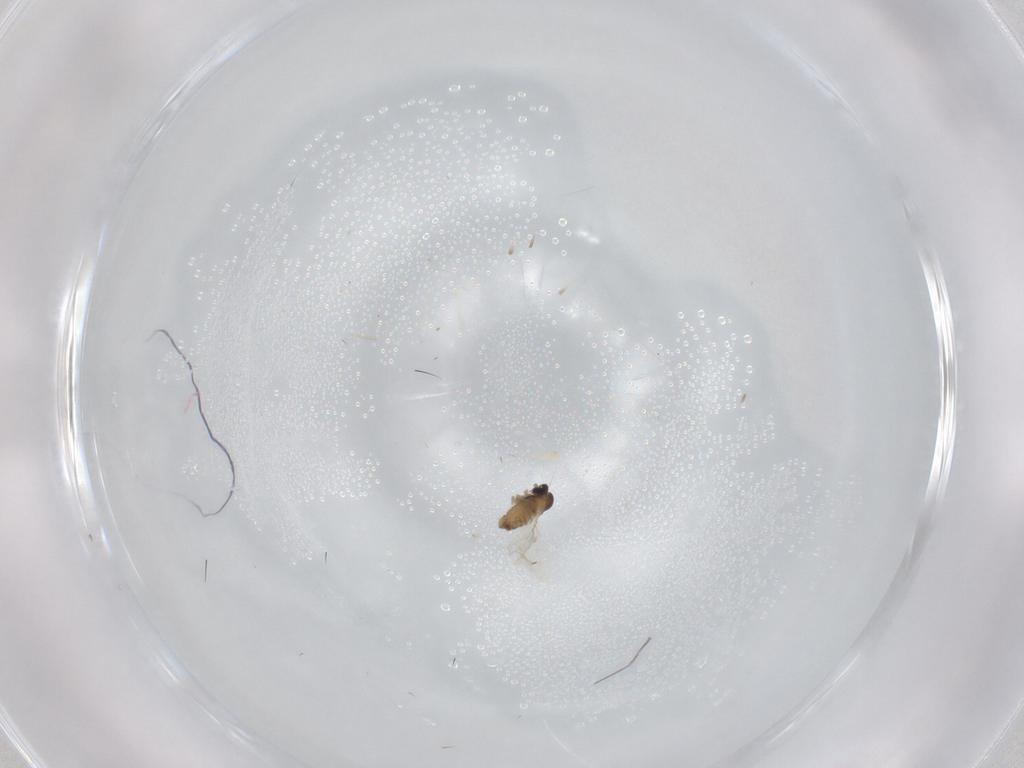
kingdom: Animalia
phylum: Arthropoda
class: Insecta
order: Diptera
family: Cecidomyiidae
